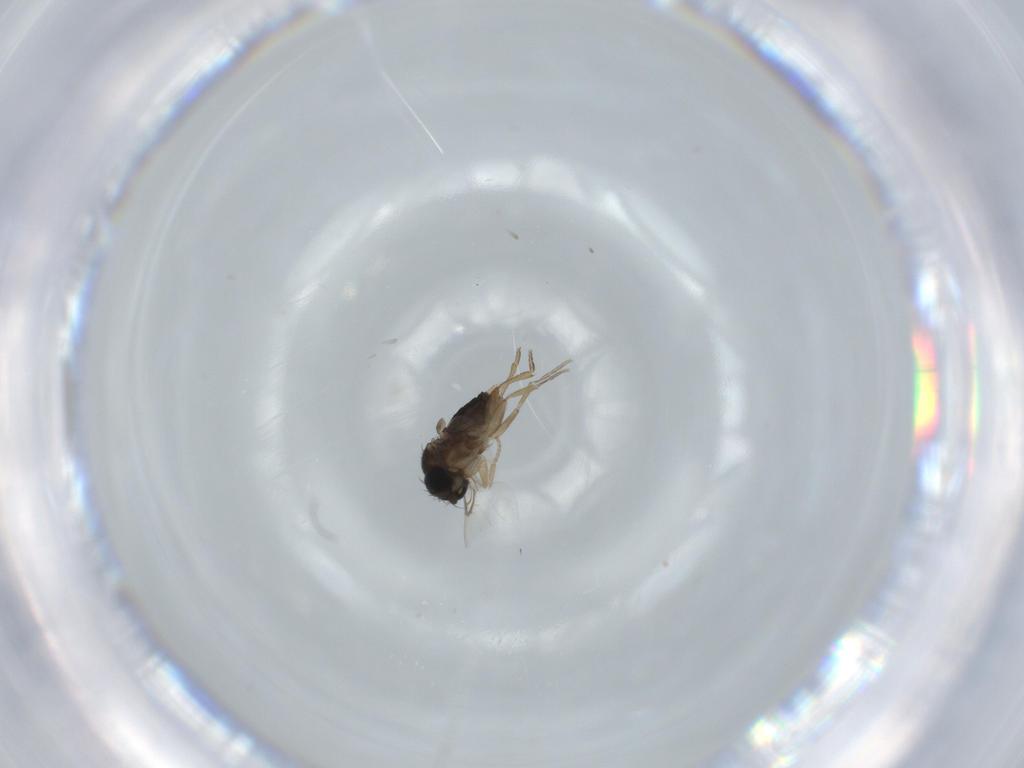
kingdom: Animalia
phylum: Arthropoda
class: Insecta
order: Diptera
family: Phoridae
